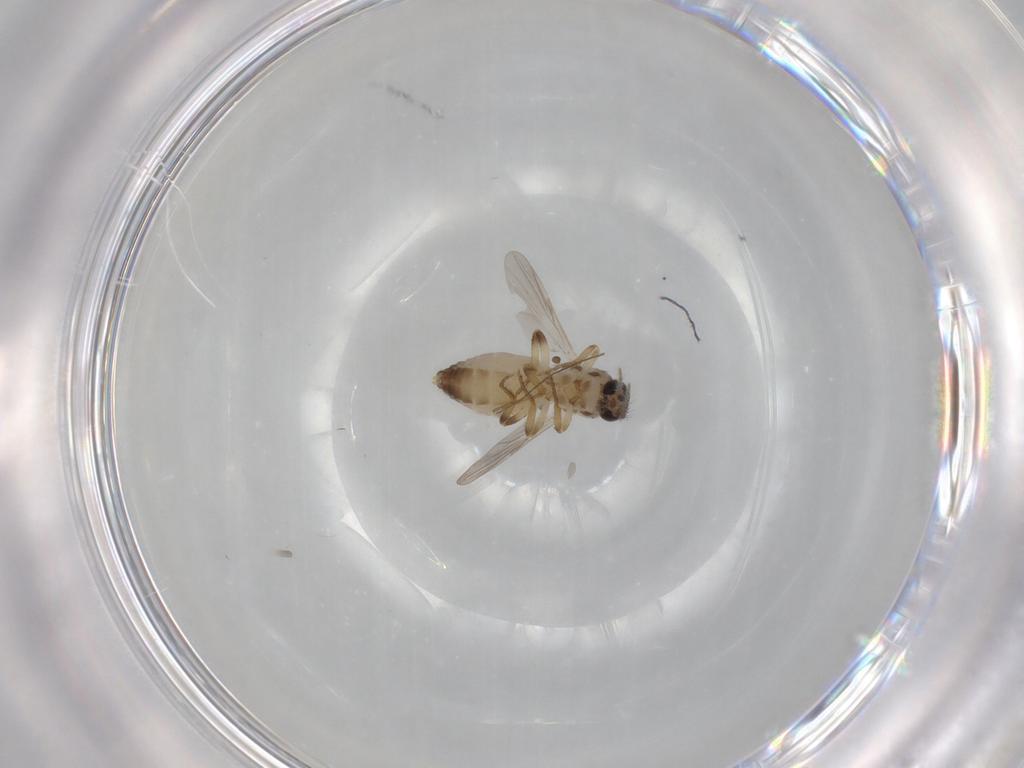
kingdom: Animalia
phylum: Arthropoda
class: Insecta
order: Diptera
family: Ceratopogonidae
